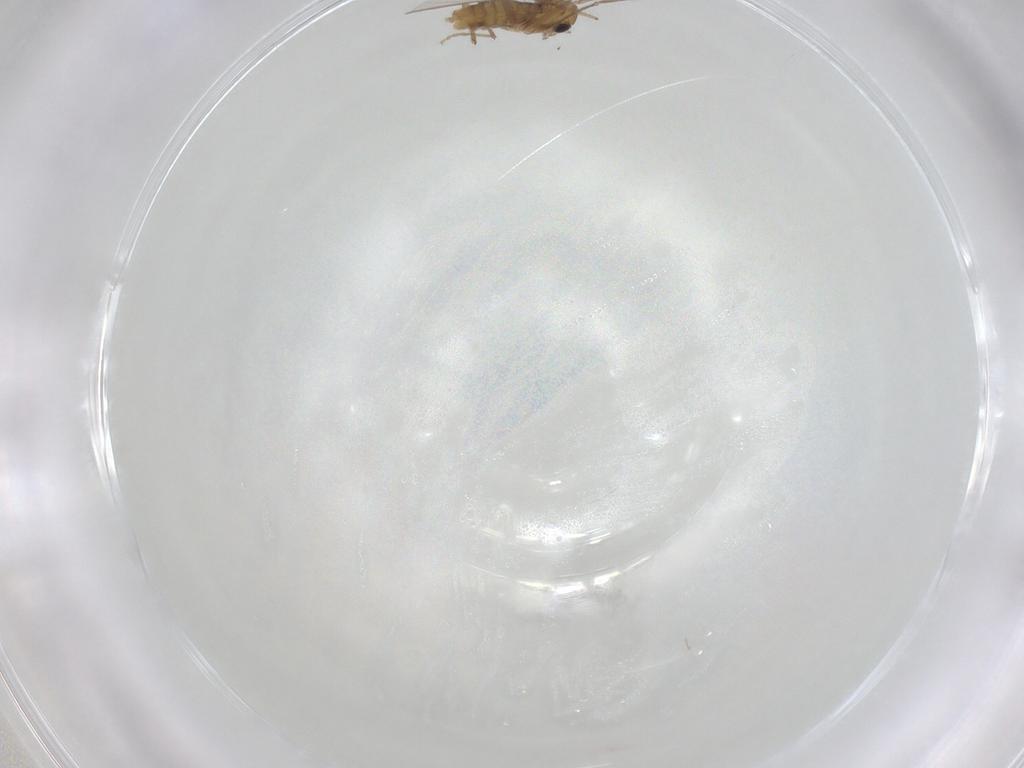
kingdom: Animalia
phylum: Arthropoda
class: Insecta
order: Diptera
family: Chironomidae
